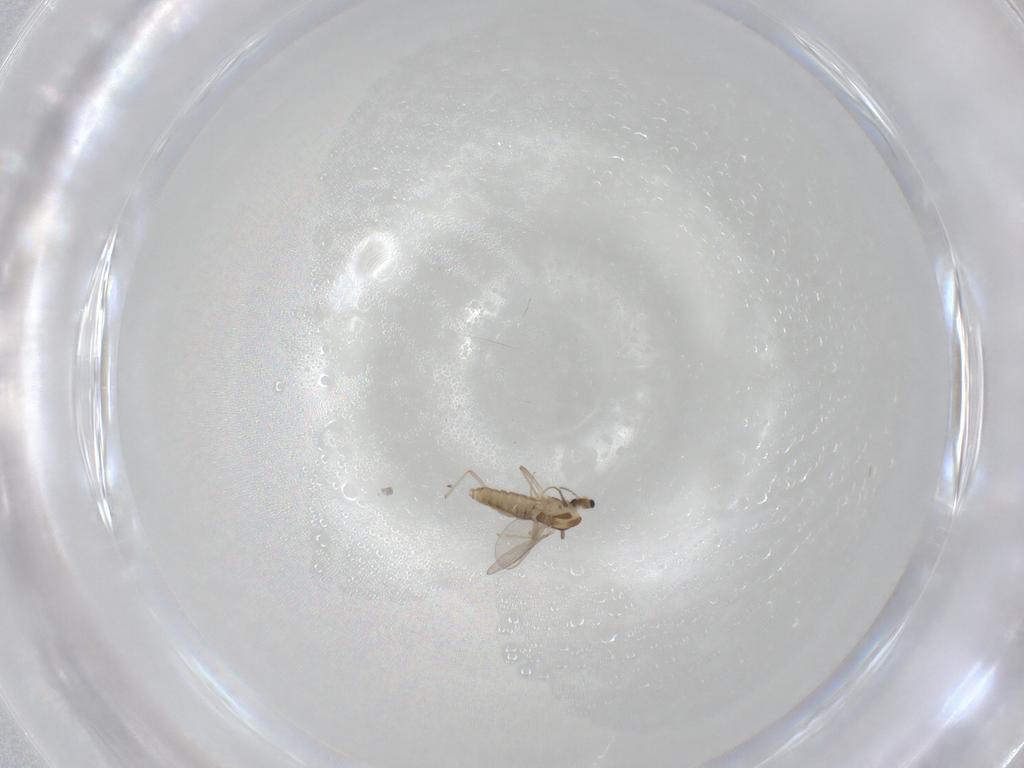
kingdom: Animalia
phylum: Arthropoda
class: Insecta
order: Diptera
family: Chironomidae
